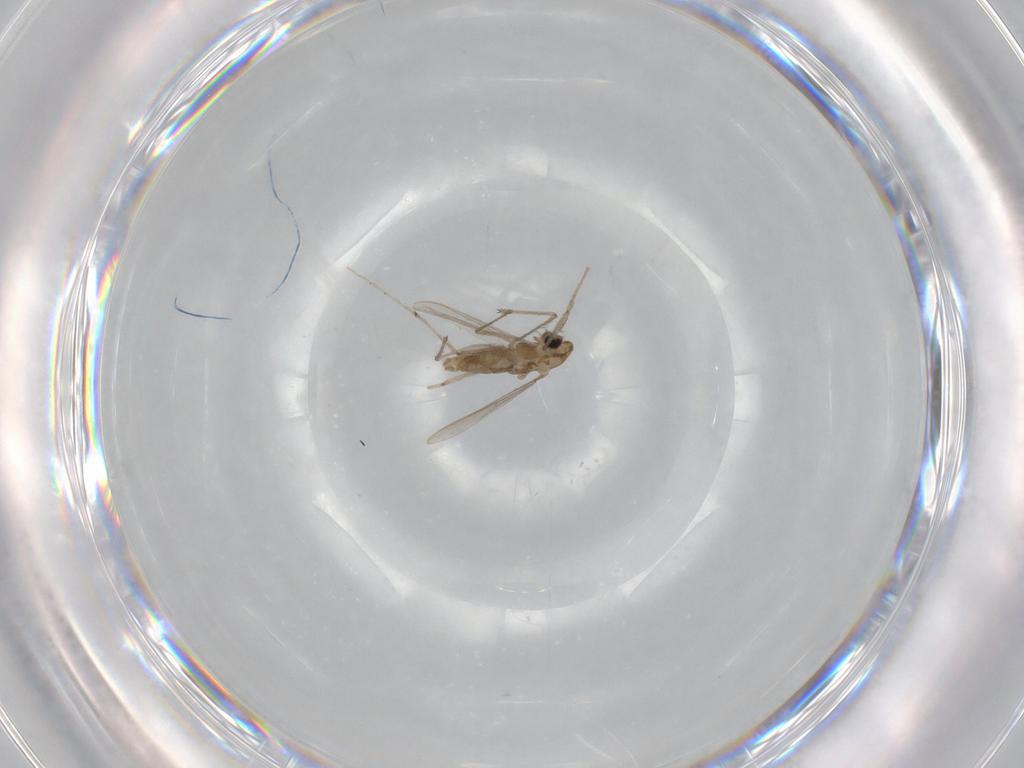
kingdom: Animalia
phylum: Arthropoda
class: Insecta
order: Diptera
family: Chironomidae
